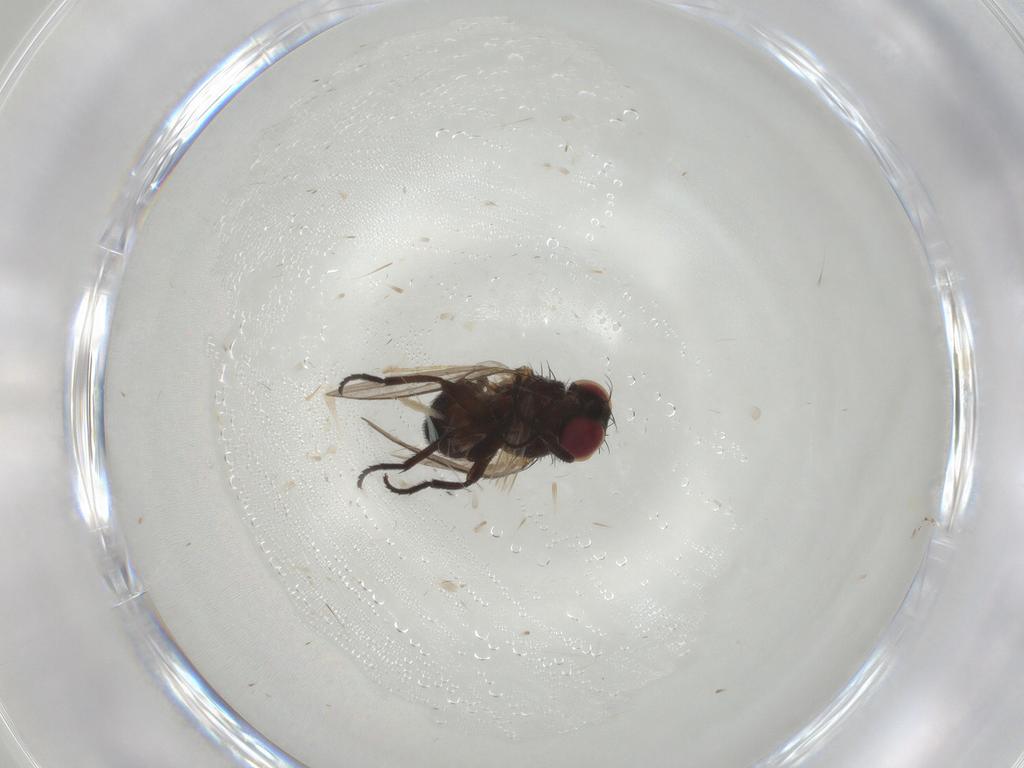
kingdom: Animalia
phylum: Arthropoda
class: Insecta
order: Diptera
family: Agromyzidae
